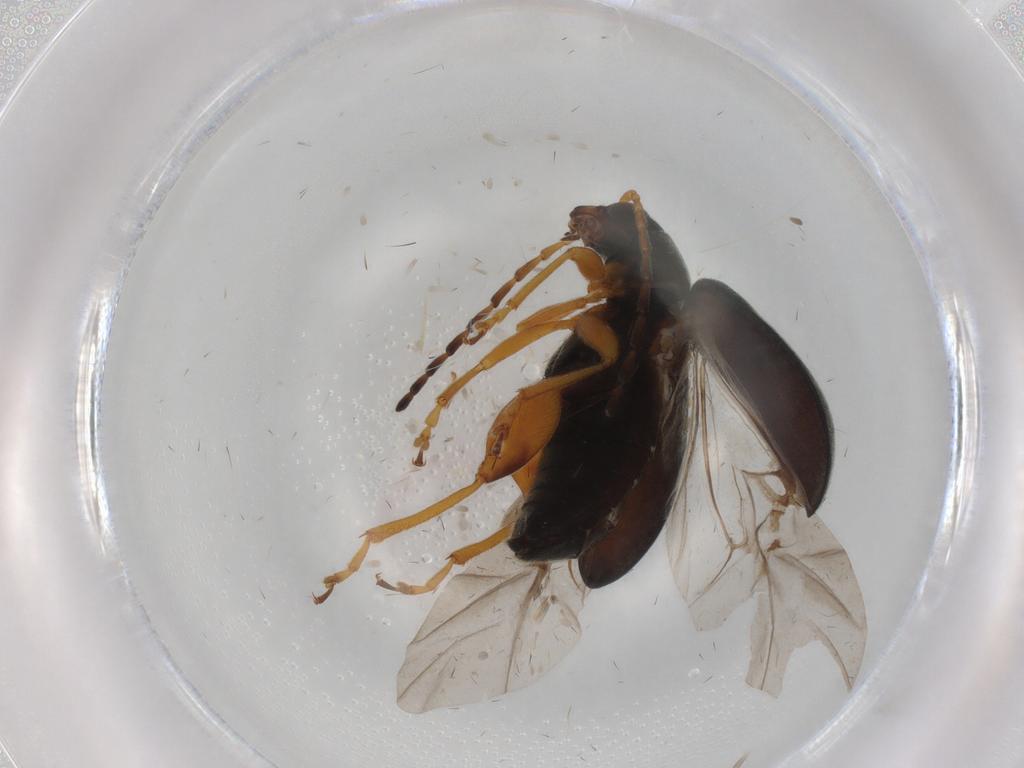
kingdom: Animalia
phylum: Arthropoda
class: Insecta
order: Coleoptera
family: Chrysomelidae
